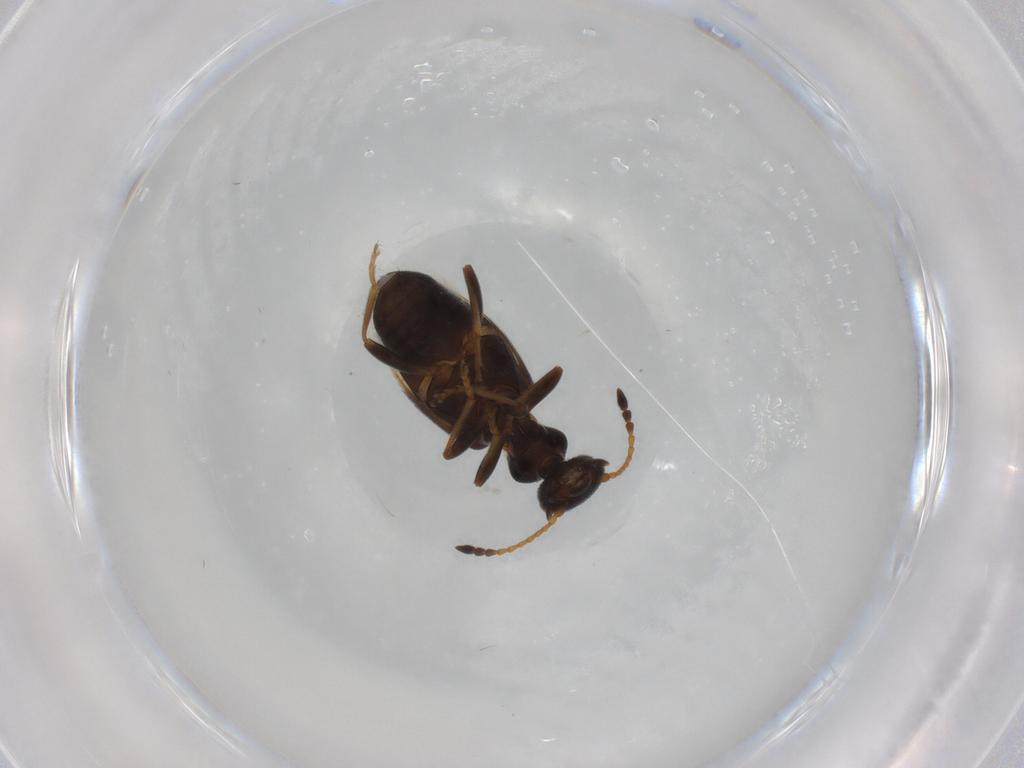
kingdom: Animalia
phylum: Arthropoda
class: Insecta
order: Coleoptera
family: Anthicidae
